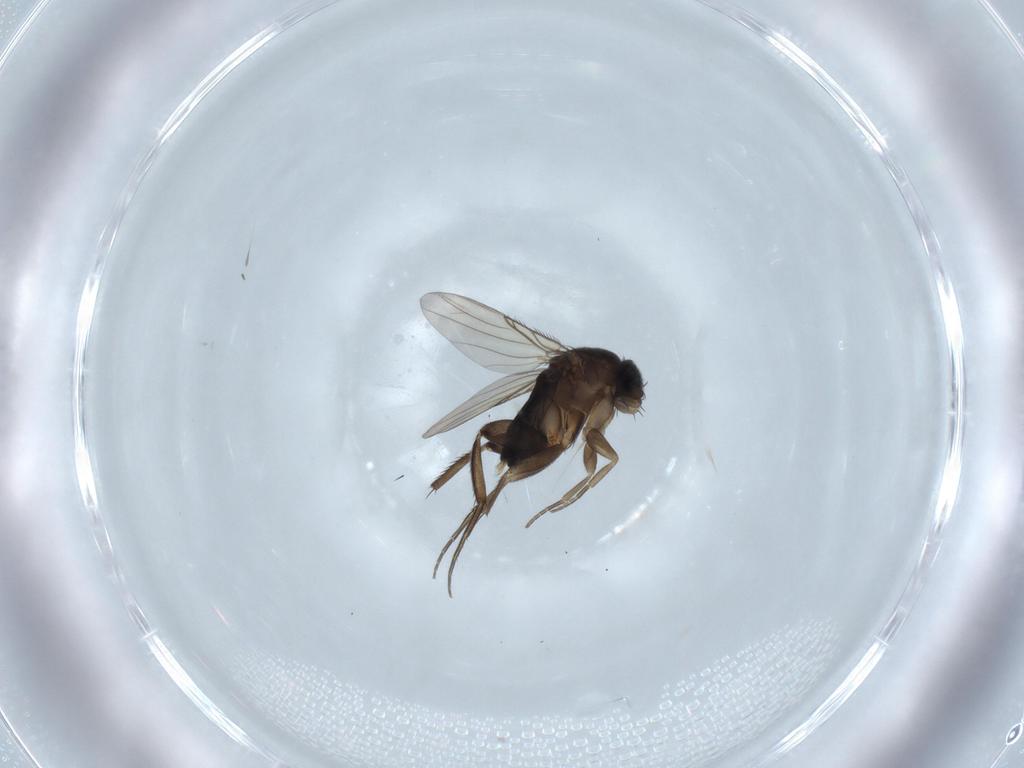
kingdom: Animalia
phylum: Arthropoda
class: Insecta
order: Diptera
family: Phoridae
